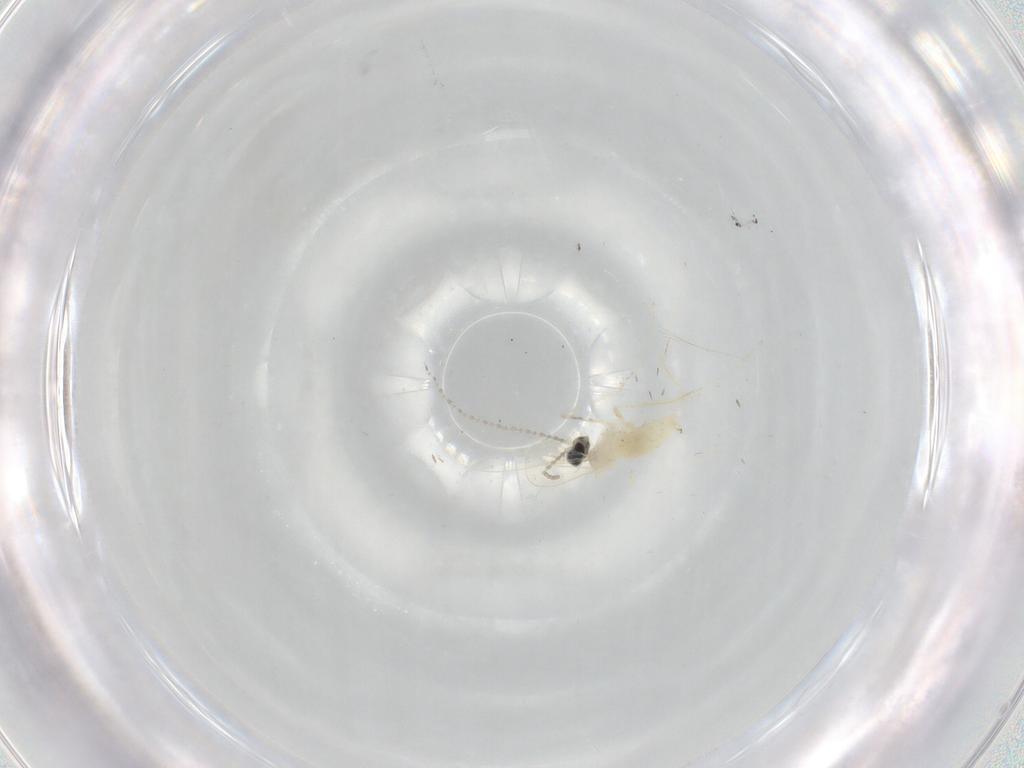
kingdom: Animalia
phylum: Arthropoda
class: Insecta
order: Diptera
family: Cecidomyiidae
